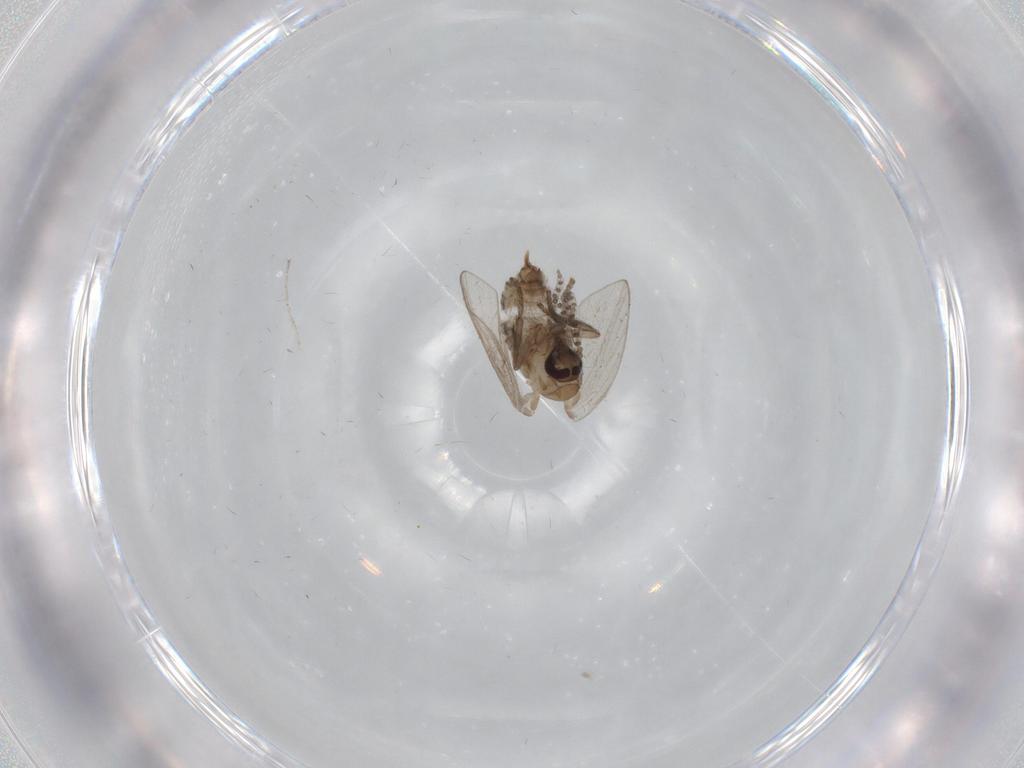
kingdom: Animalia
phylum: Arthropoda
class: Insecta
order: Diptera
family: Psychodidae
